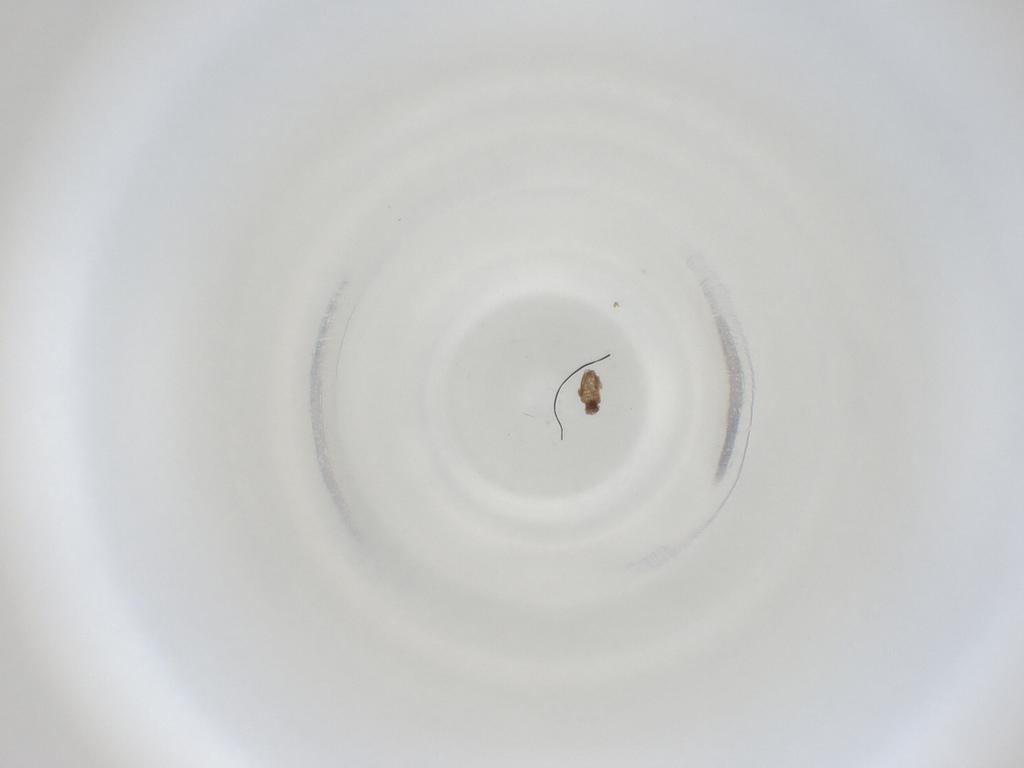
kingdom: Animalia
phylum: Arthropoda
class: Insecta
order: Diptera
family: Cecidomyiidae
